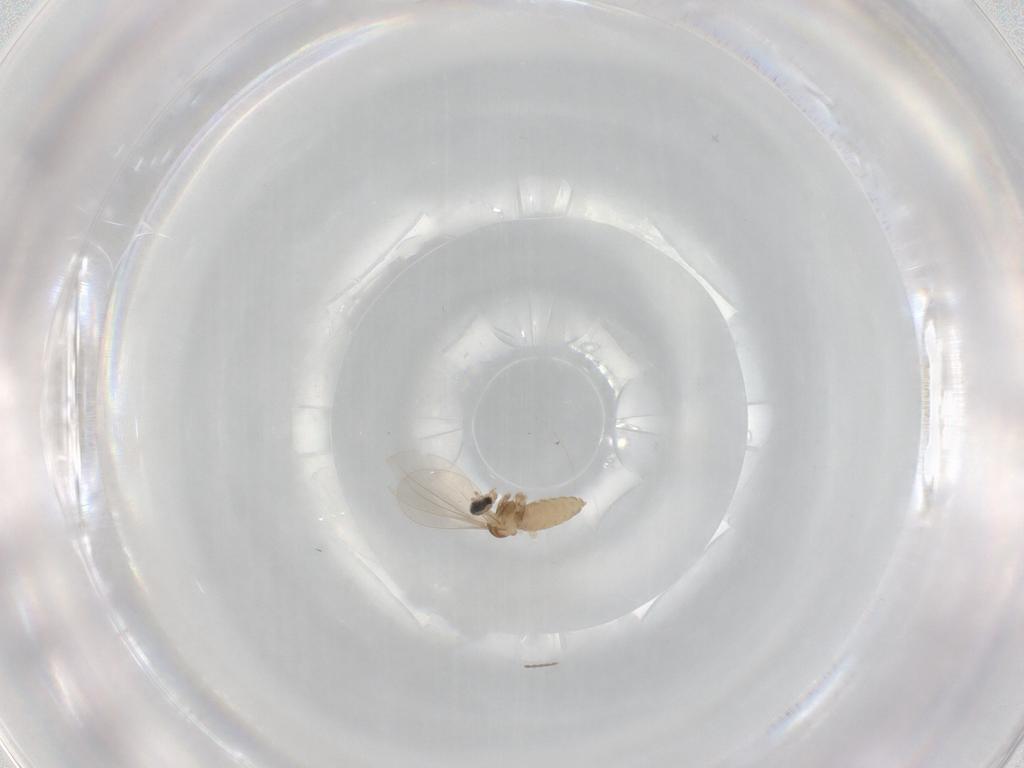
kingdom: Animalia
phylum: Arthropoda
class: Insecta
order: Diptera
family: Cecidomyiidae
